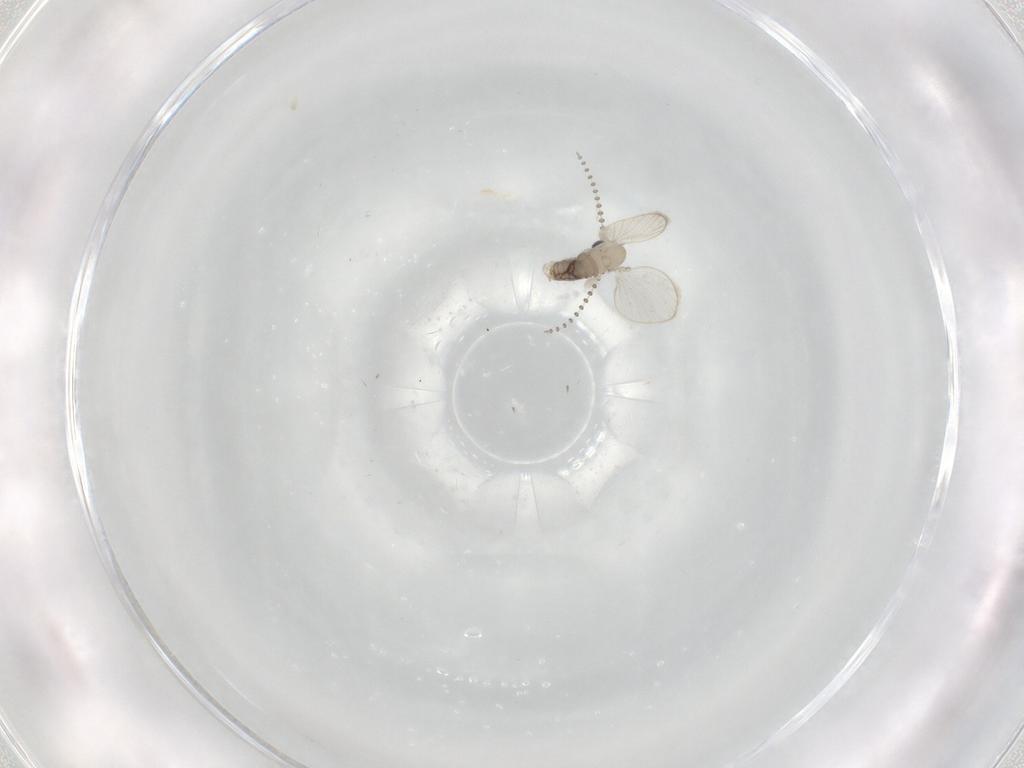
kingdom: Animalia
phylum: Arthropoda
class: Insecta
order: Diptera
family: Psychodidae
